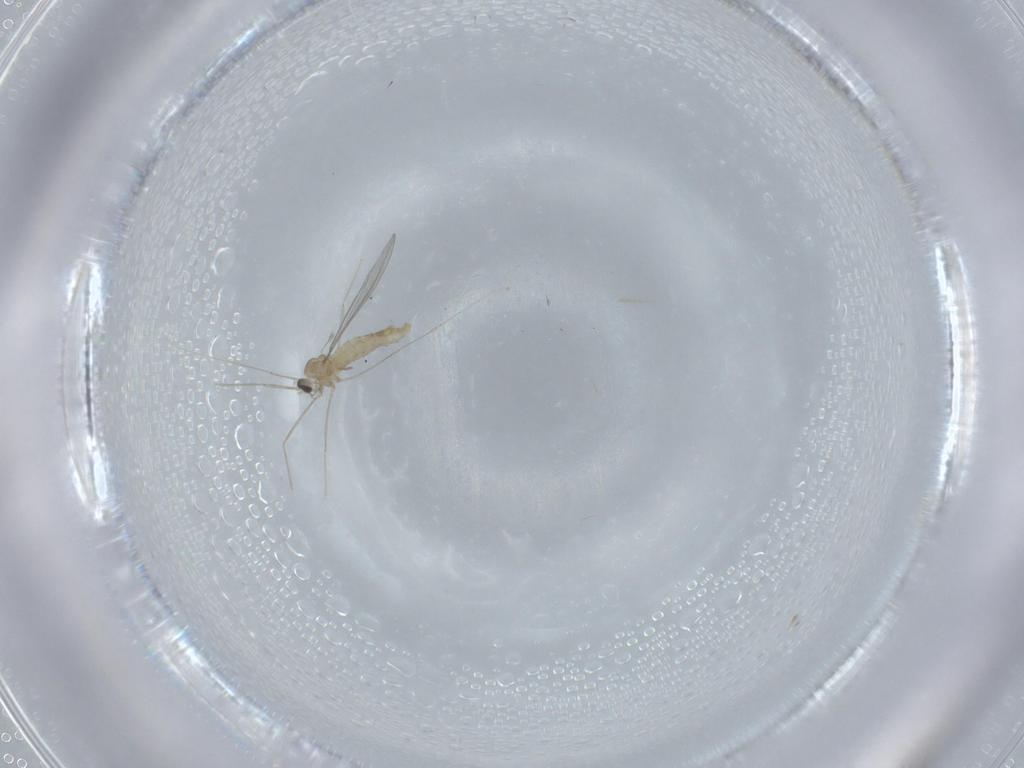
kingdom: Animalia
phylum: Arthropoda
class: Insecta
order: Diptera
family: Cecidomyiidae
